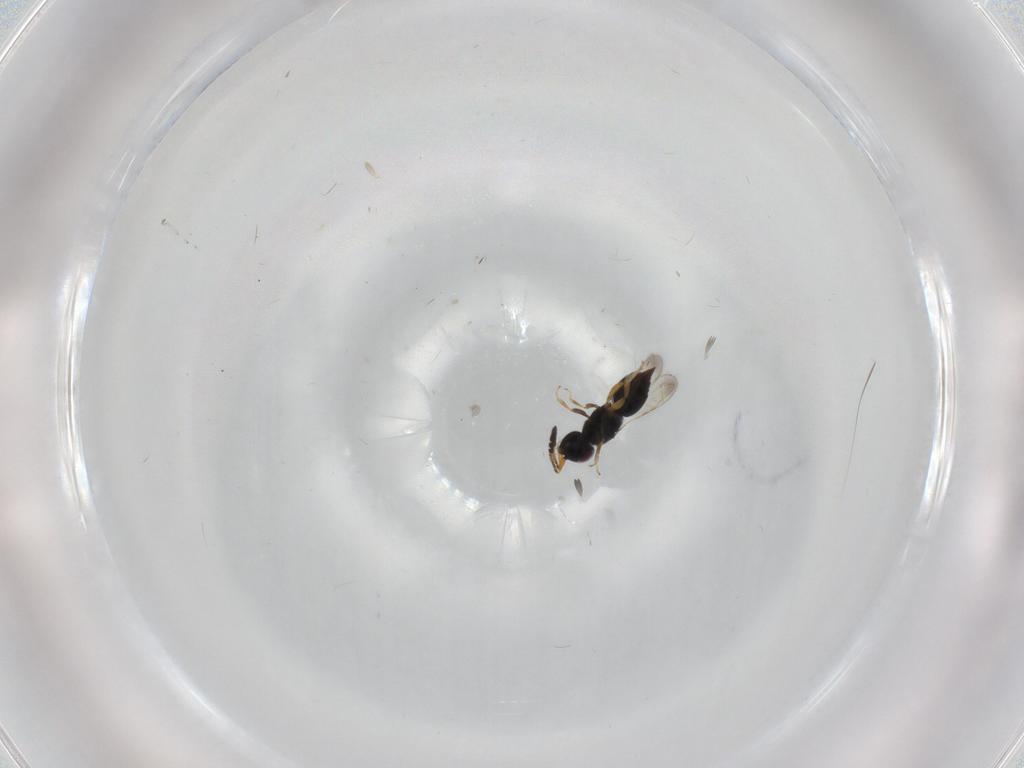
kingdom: Animalia
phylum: Arthropoda
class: Insecta
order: Hymenoptera
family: Formicidae
